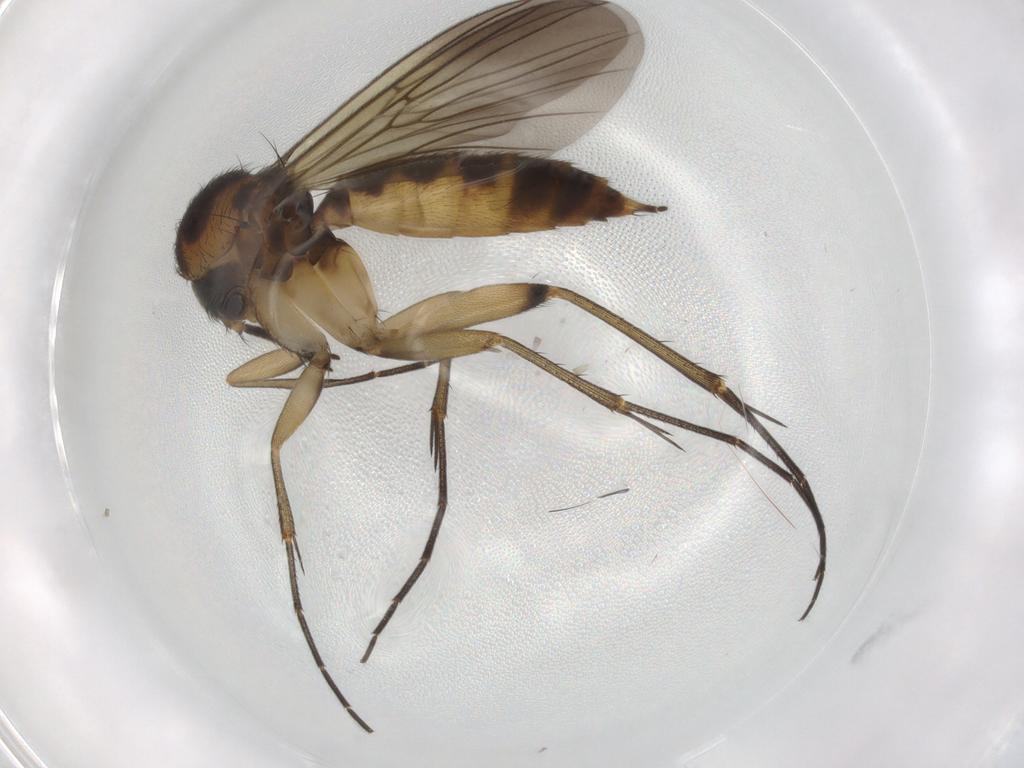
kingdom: Animalia
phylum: Arthropoda
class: Insecta
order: Diptera
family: Mycetophilidae
